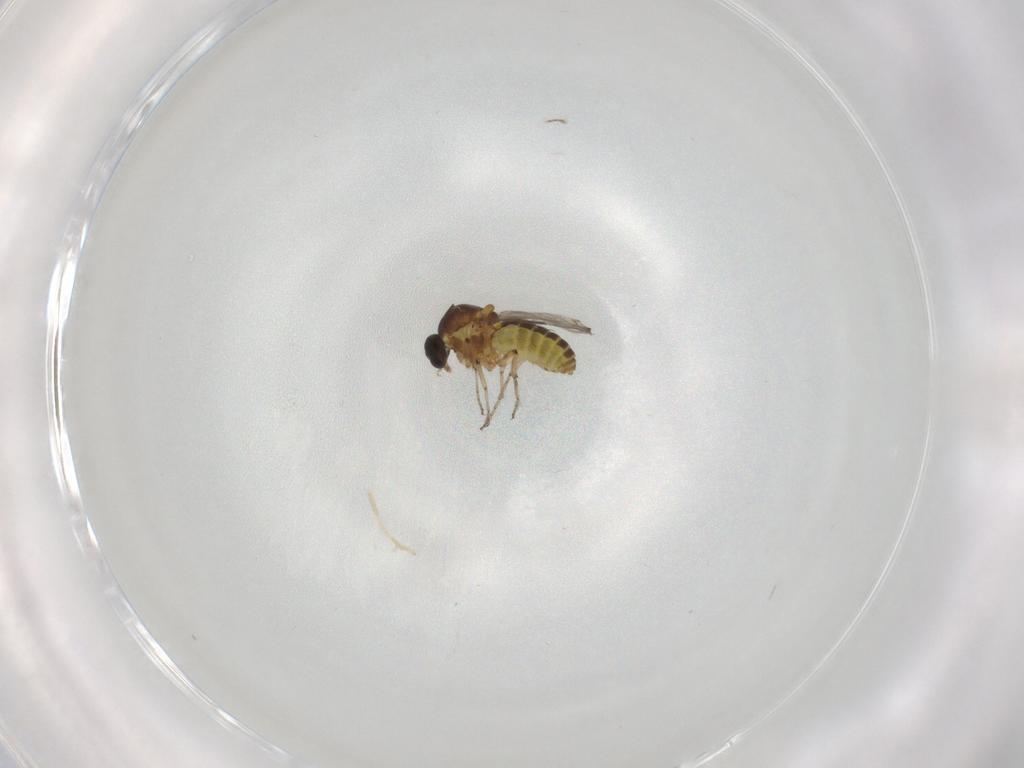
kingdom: Animalia
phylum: Arthropoda
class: Insecta
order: Diptera
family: Ceratopogonidae
